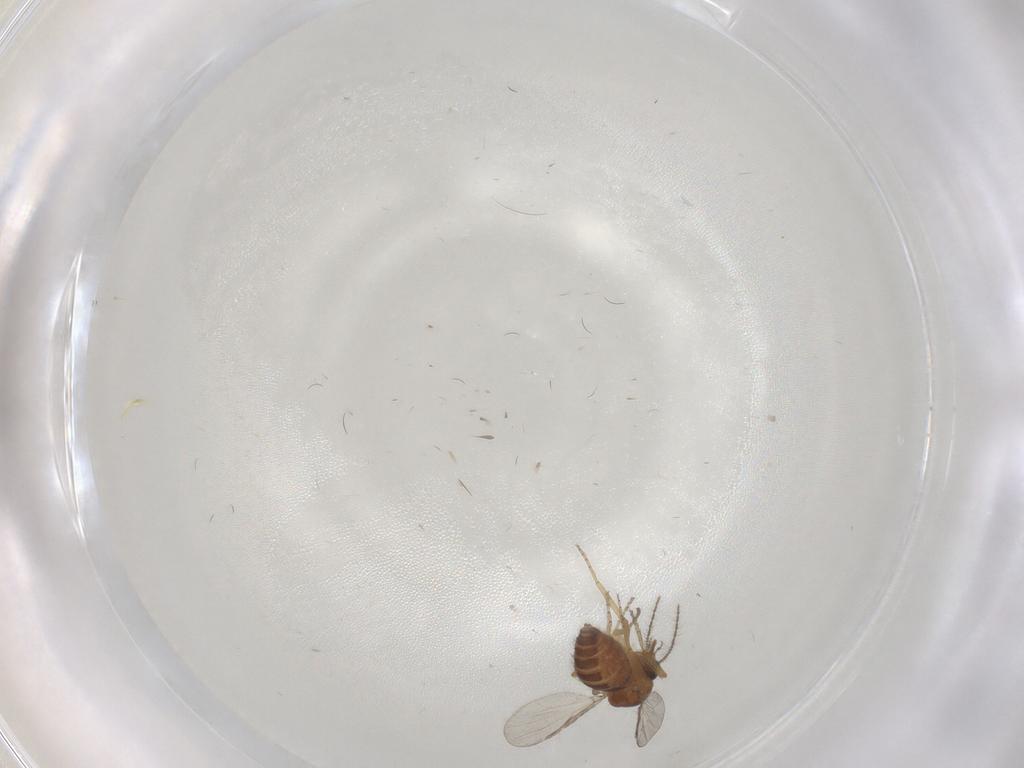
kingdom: Animalia
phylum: Arthropoda
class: Insecta
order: Diptera
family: Ceratopogonidae
